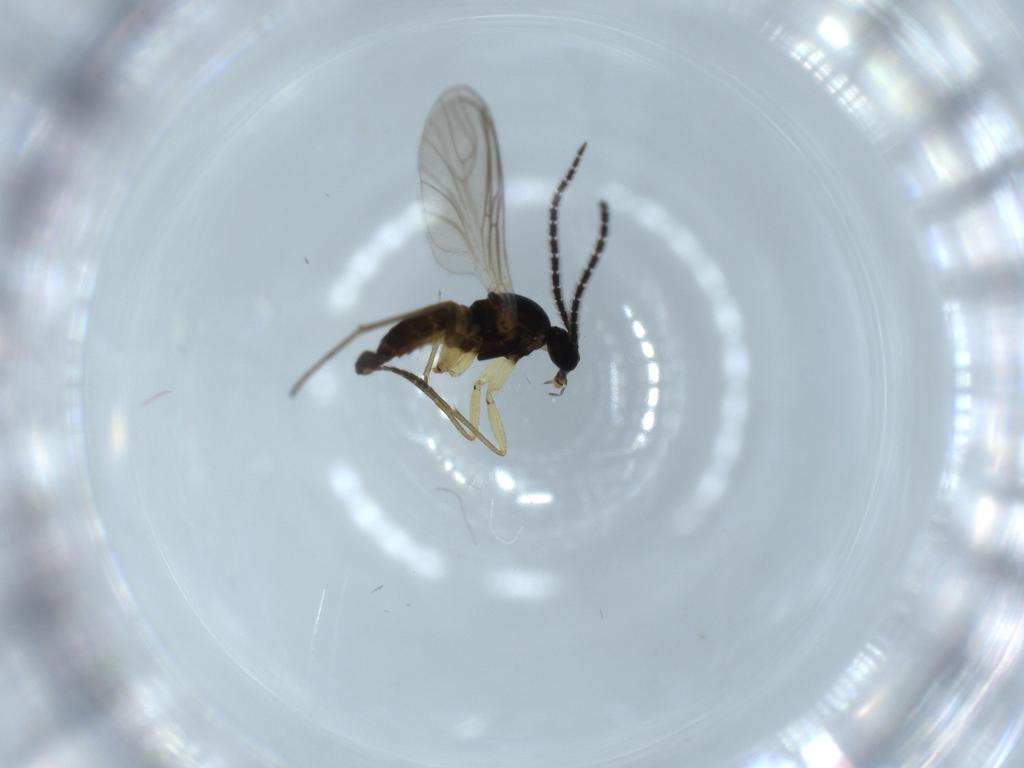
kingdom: Animalia
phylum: Arthropoda
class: Insecta
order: Diptera
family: Sciaridae
